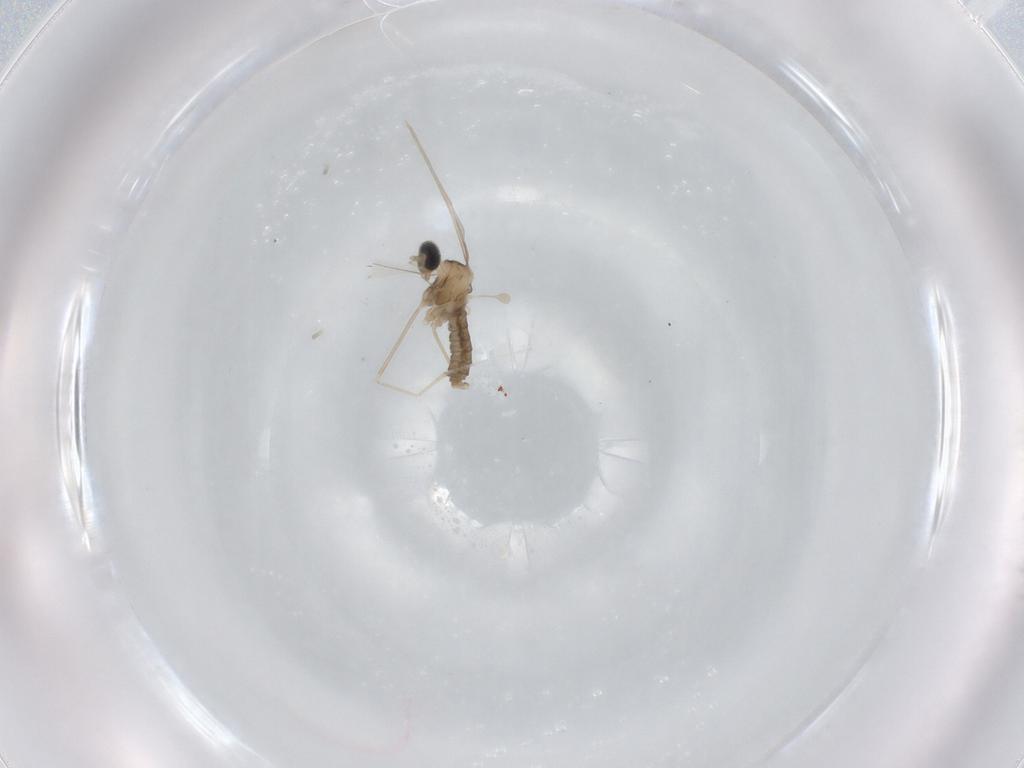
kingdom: Animalia
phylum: Arthropoda
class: Insecta
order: Diptera
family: Cecidomyiidae
